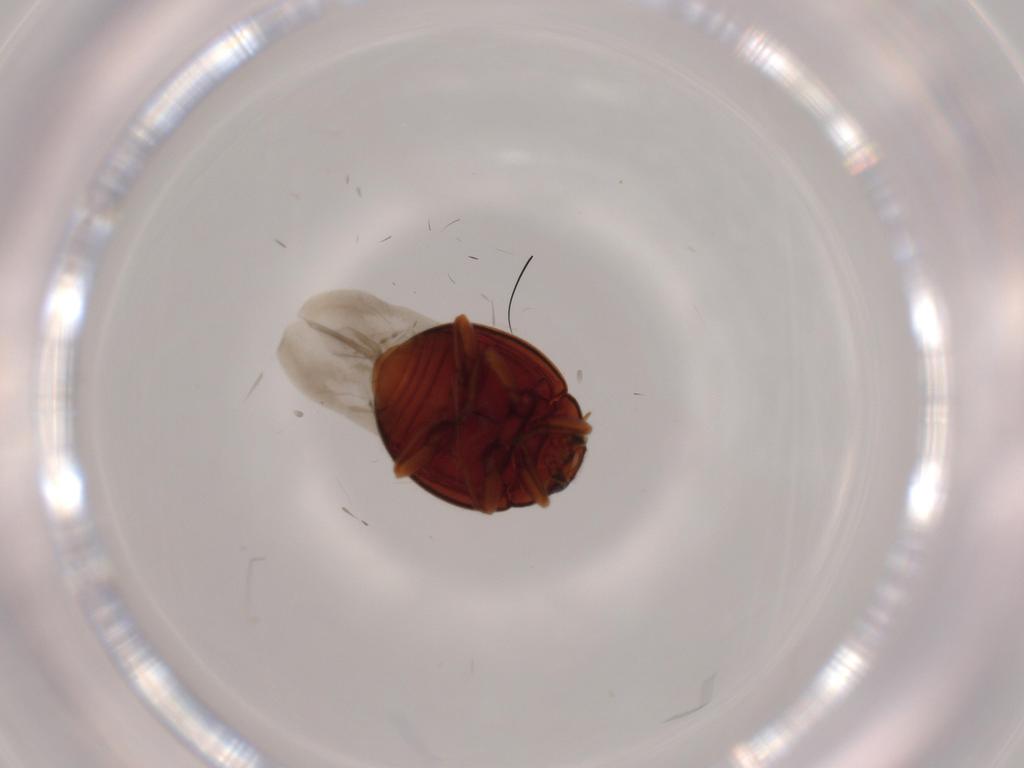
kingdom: Animalia
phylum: Arthropoda
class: Insecta
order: Coleoptera
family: Coccinellidae
